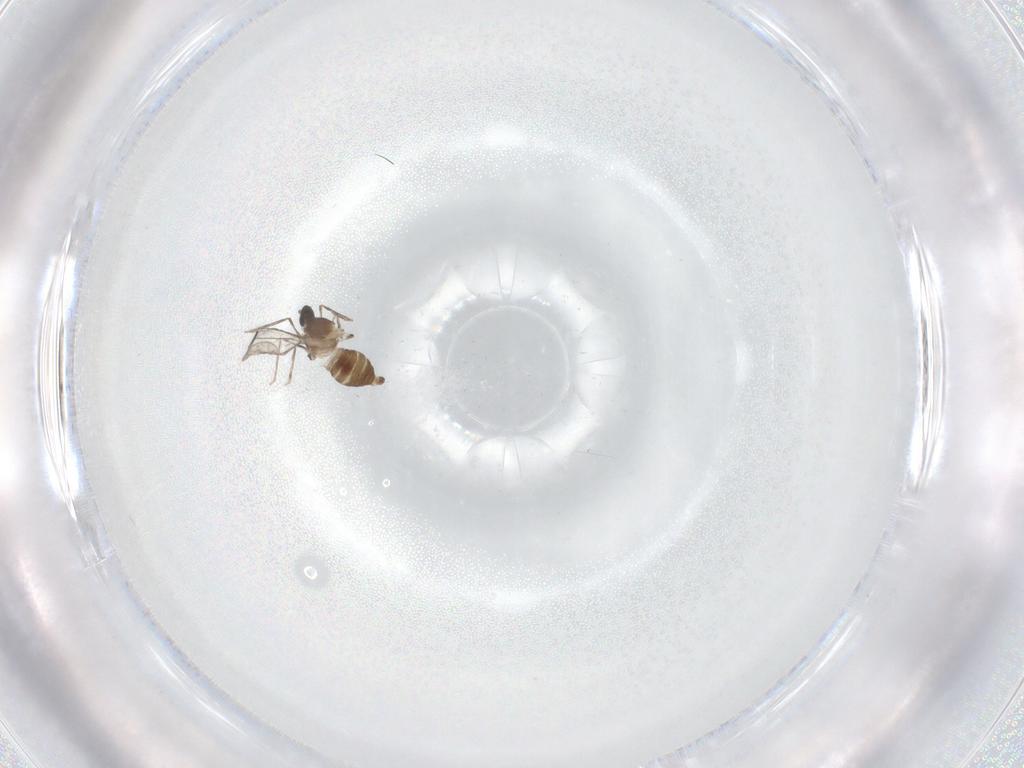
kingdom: Animalia
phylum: Arthropoda
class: Insecta
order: Diptera
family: Cecidomyiidae
